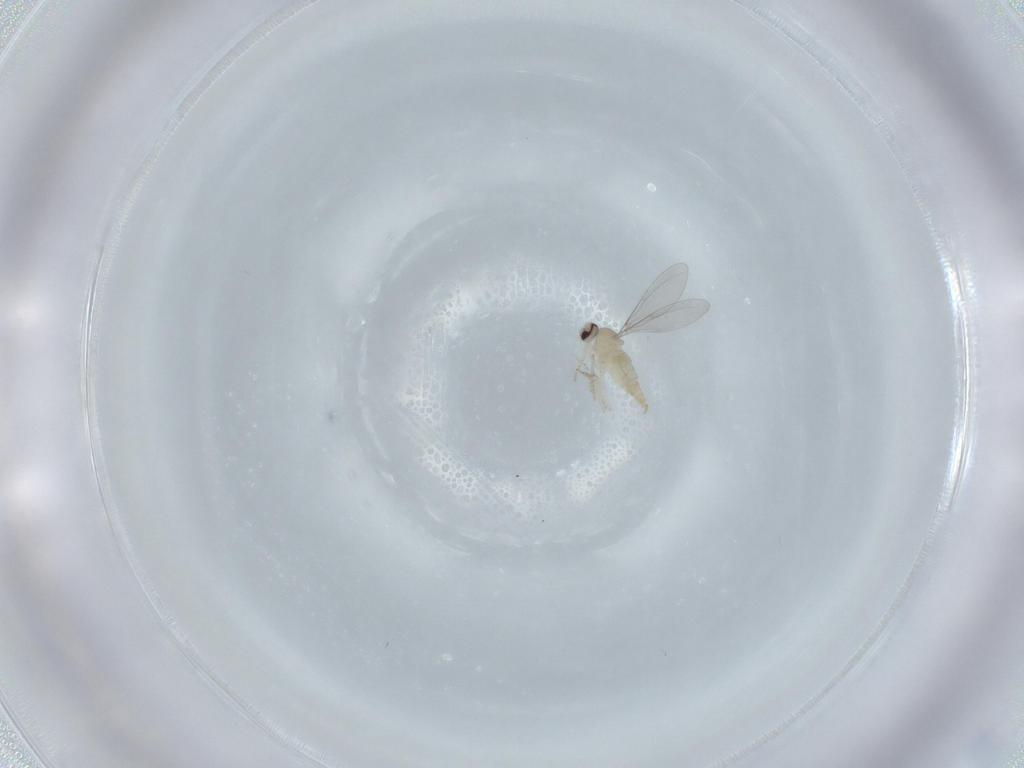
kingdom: Animalia
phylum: Arthropoda
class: Insecta
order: Diptera
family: Cecidomyiidae
